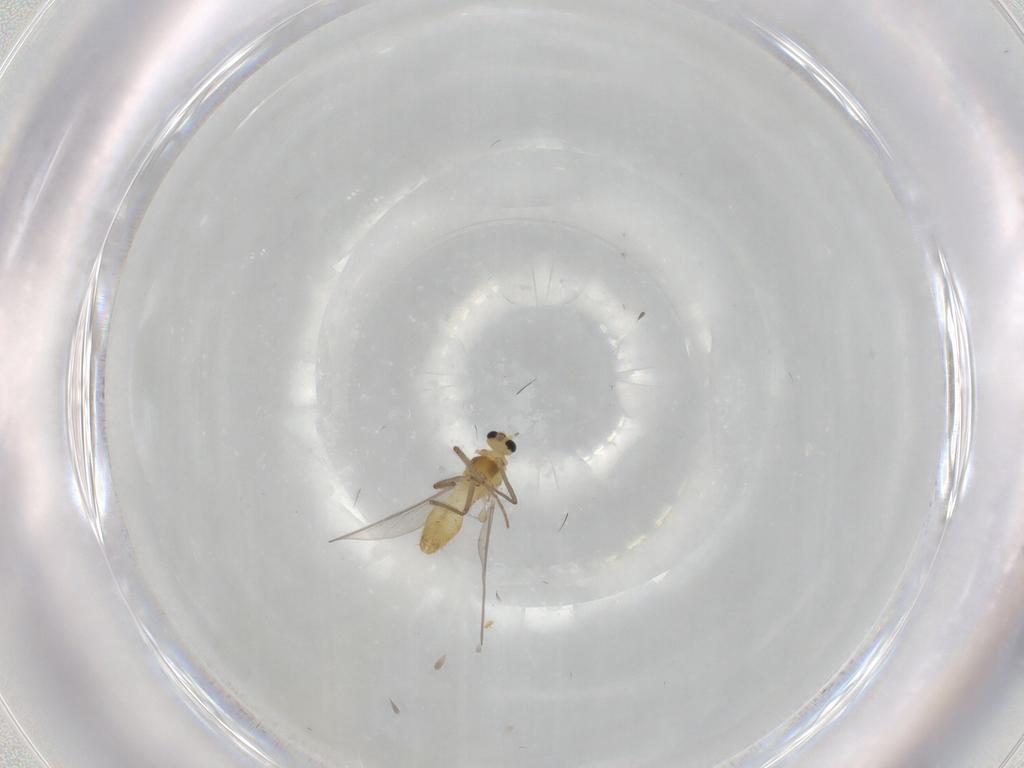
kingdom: Animalia
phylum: Arthropoda
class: Insecta
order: Diptera
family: Chironomidae
